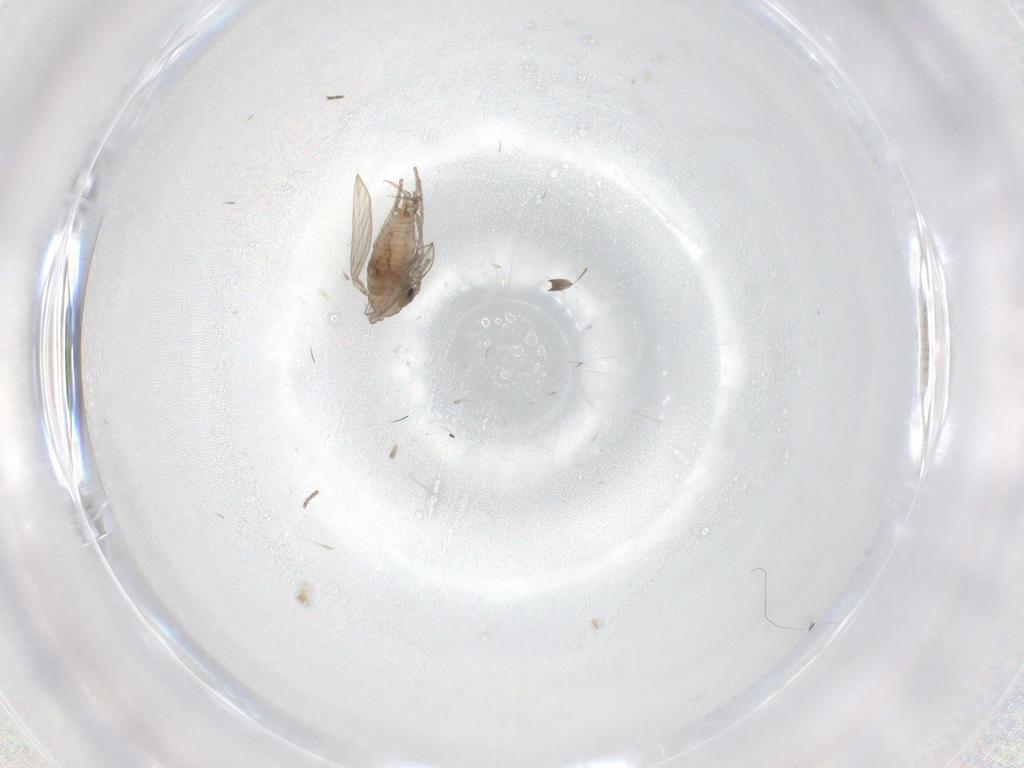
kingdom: Animalia
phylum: Arthropoda
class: Insecta
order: Diptera
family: Psychodidae
